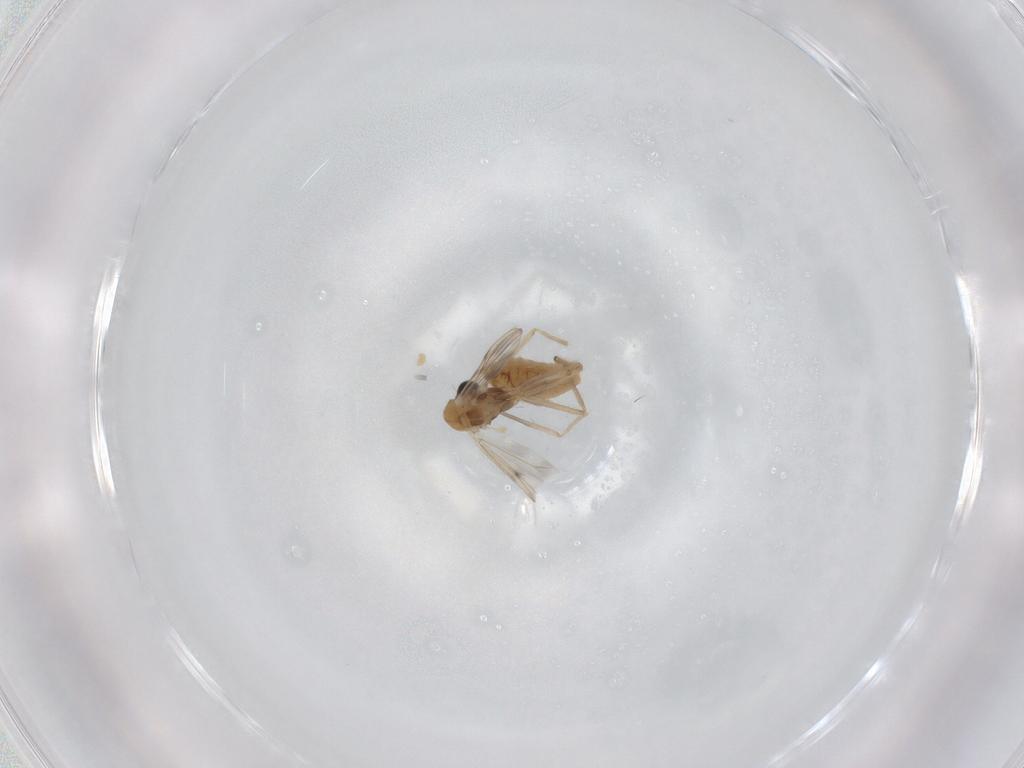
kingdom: Animalia
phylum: Arthropoda
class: Insecta
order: Diptera
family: Chironomidae
